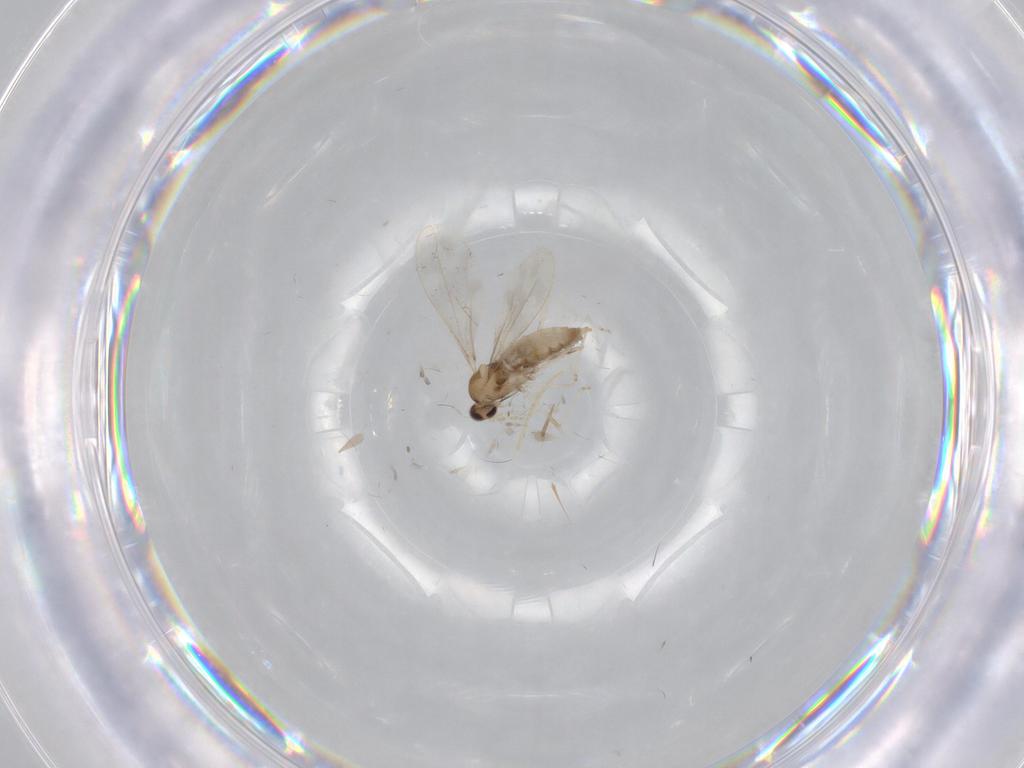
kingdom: Animalia
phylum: Arthropoda
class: Insecta
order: Diptera
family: Cecidomyiidae
